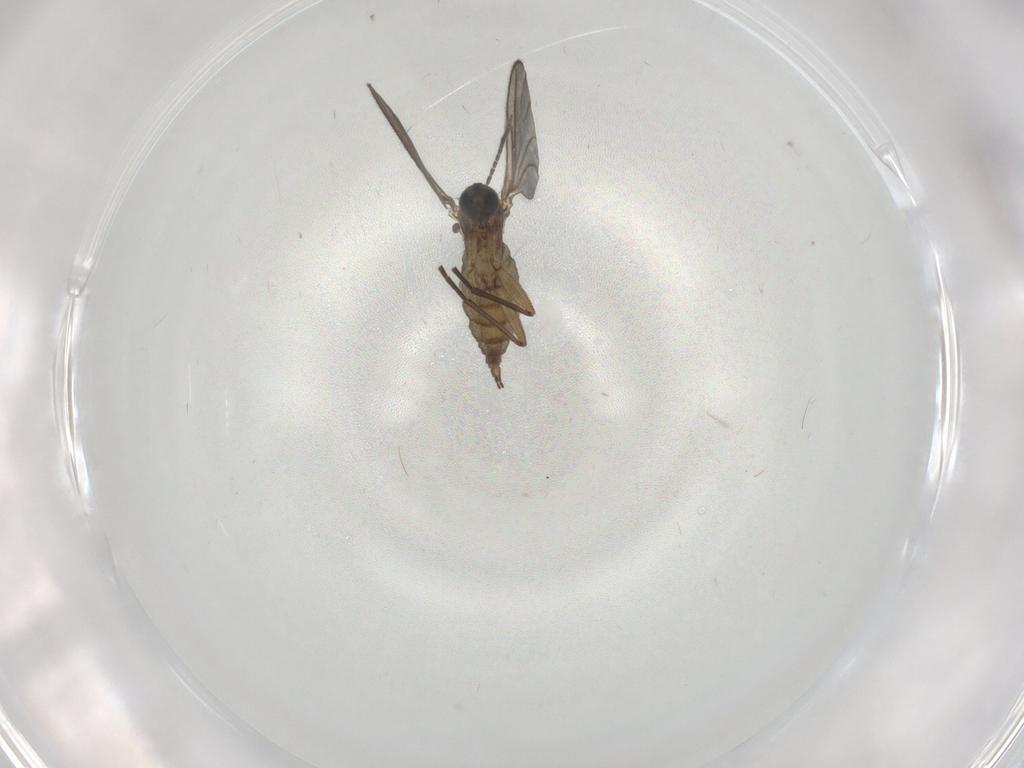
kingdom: Animalia
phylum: Arthropoda
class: Insecta
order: Diptera
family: Sciaridae
